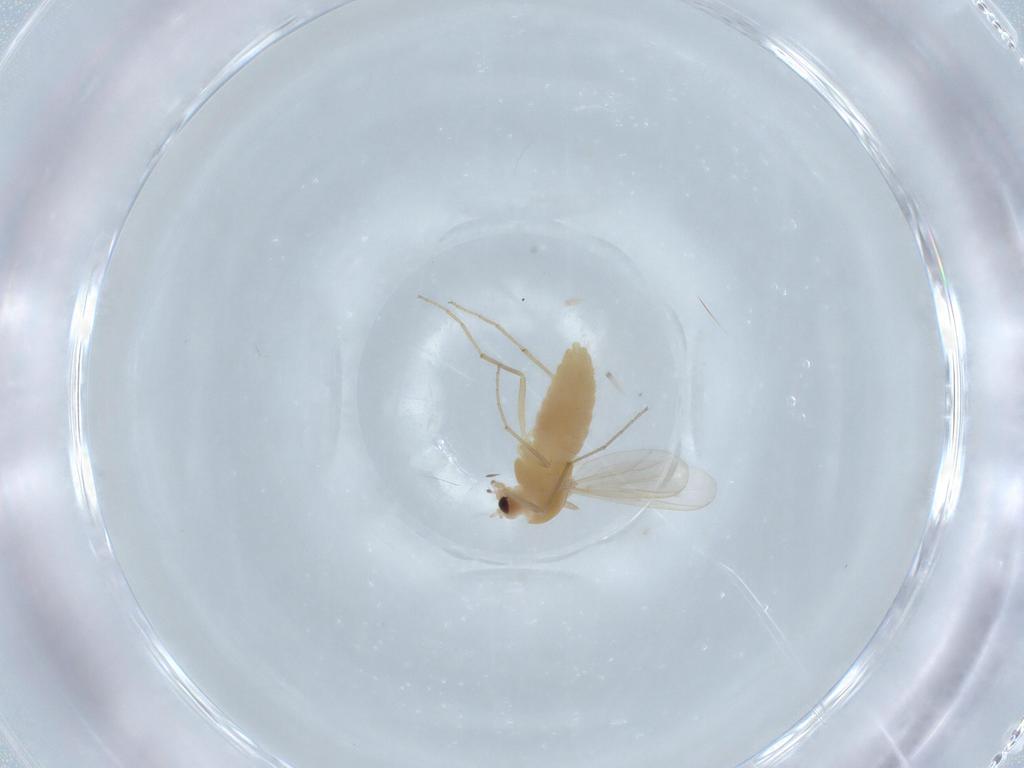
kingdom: Animalia
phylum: Arthropoda
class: Insecta
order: Diptera
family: Chironomidae
